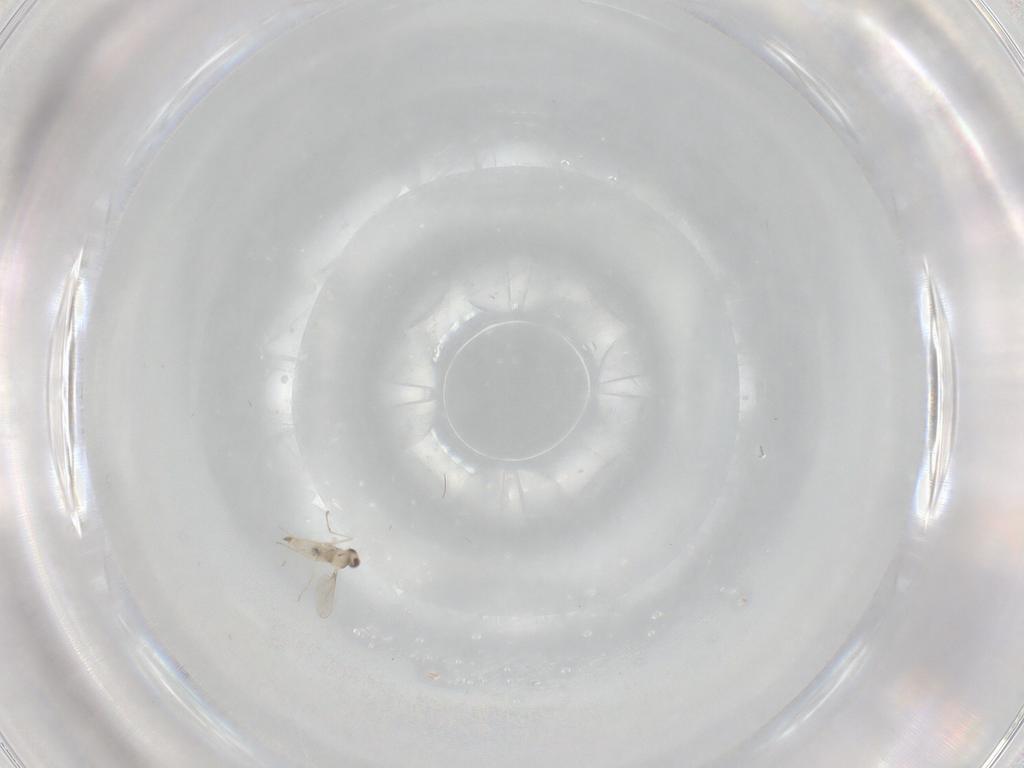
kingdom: Animalia
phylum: Arthropoda
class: Insecta
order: Diptera
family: Cecidomyiidae
